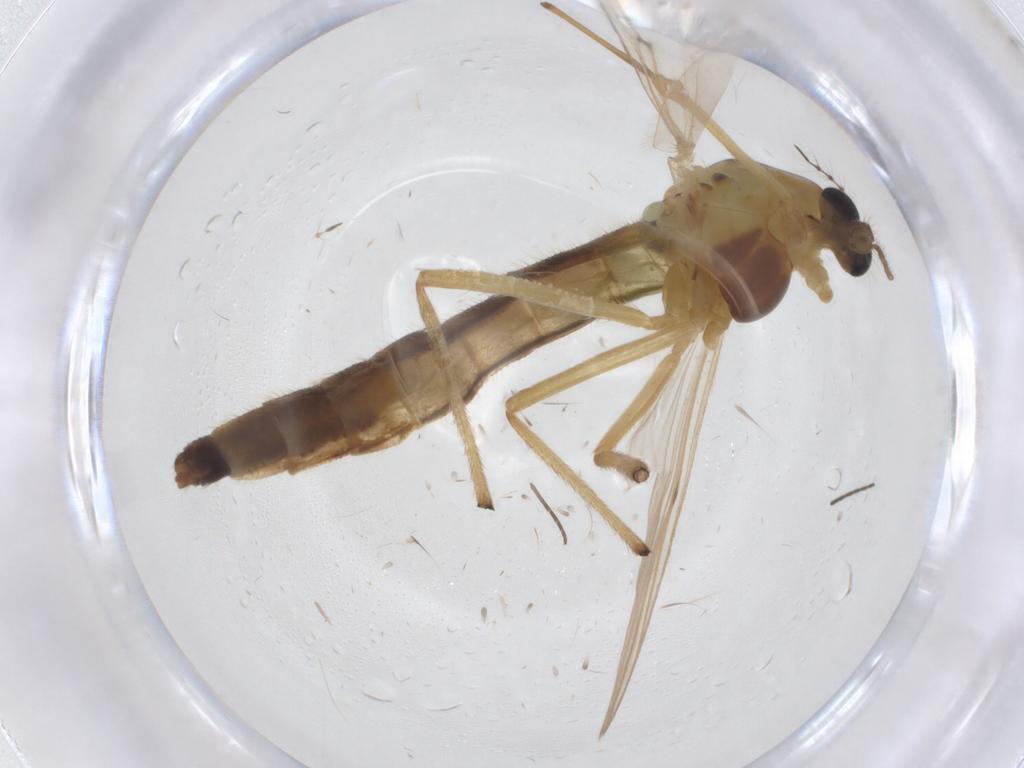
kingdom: Animalia
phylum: Arthropoda
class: Insecta
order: Diptera
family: Chironomidae
